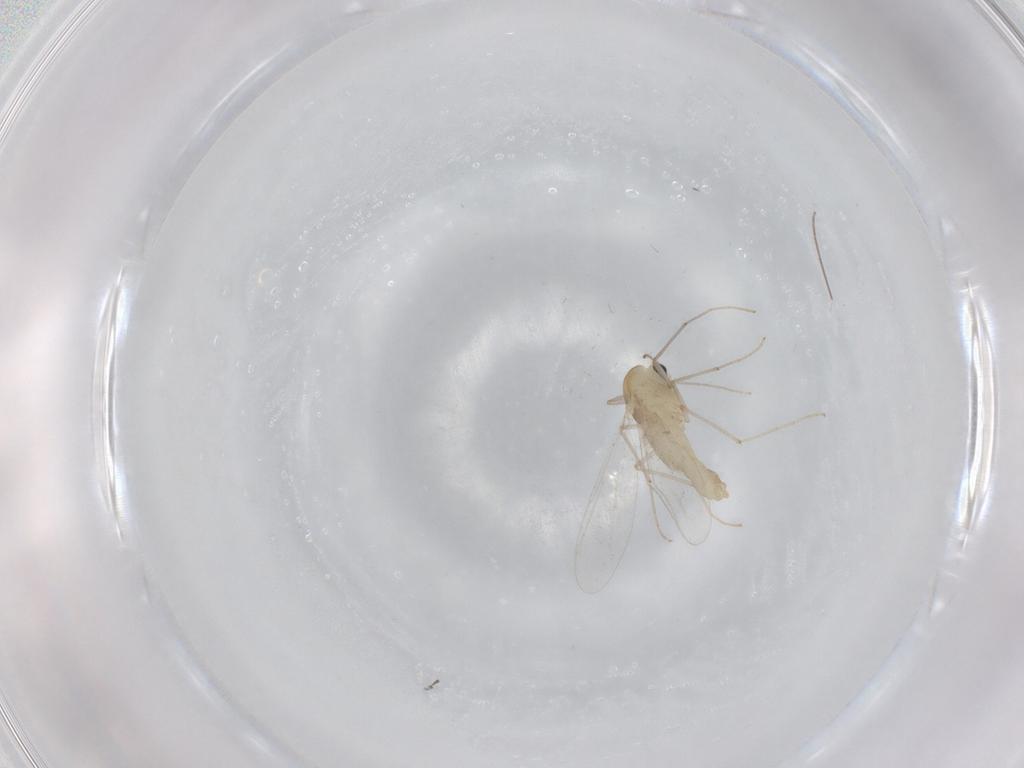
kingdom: Animalia
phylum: Arthropoda
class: Insecta
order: Diptera
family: Chironomidae
